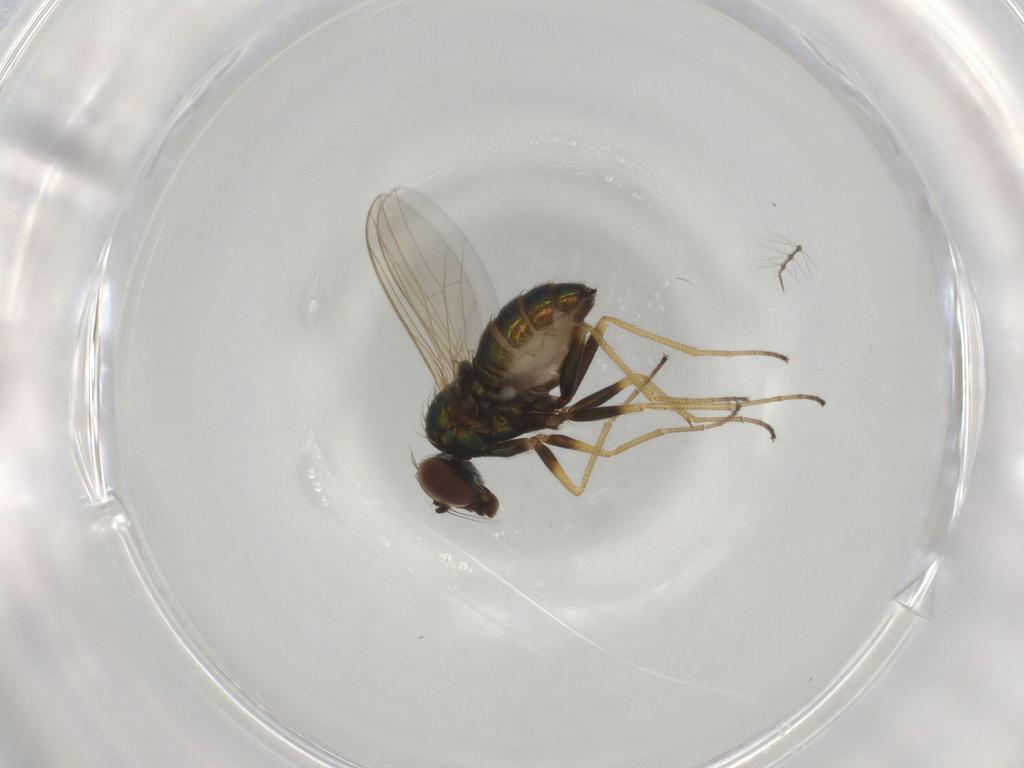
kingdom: Animalia
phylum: Arthropoda
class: Insecta
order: Diptera
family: Dolichopodidae
